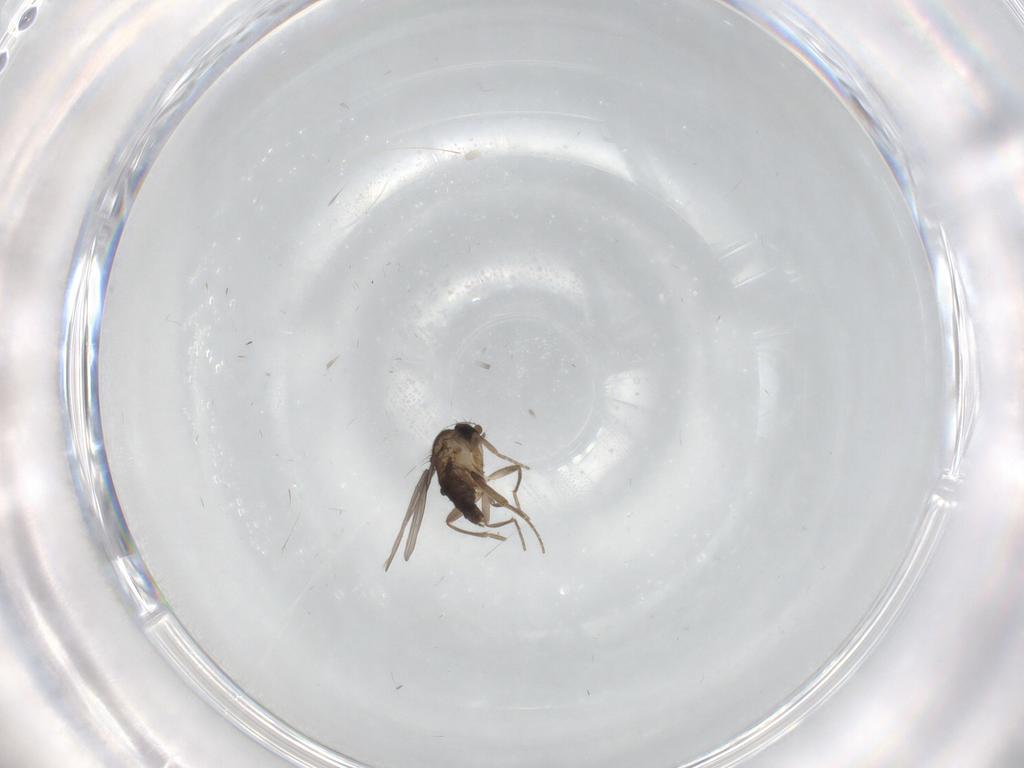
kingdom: Animalia
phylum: Arthropoda
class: Insecta
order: Diptera
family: Phoridae
